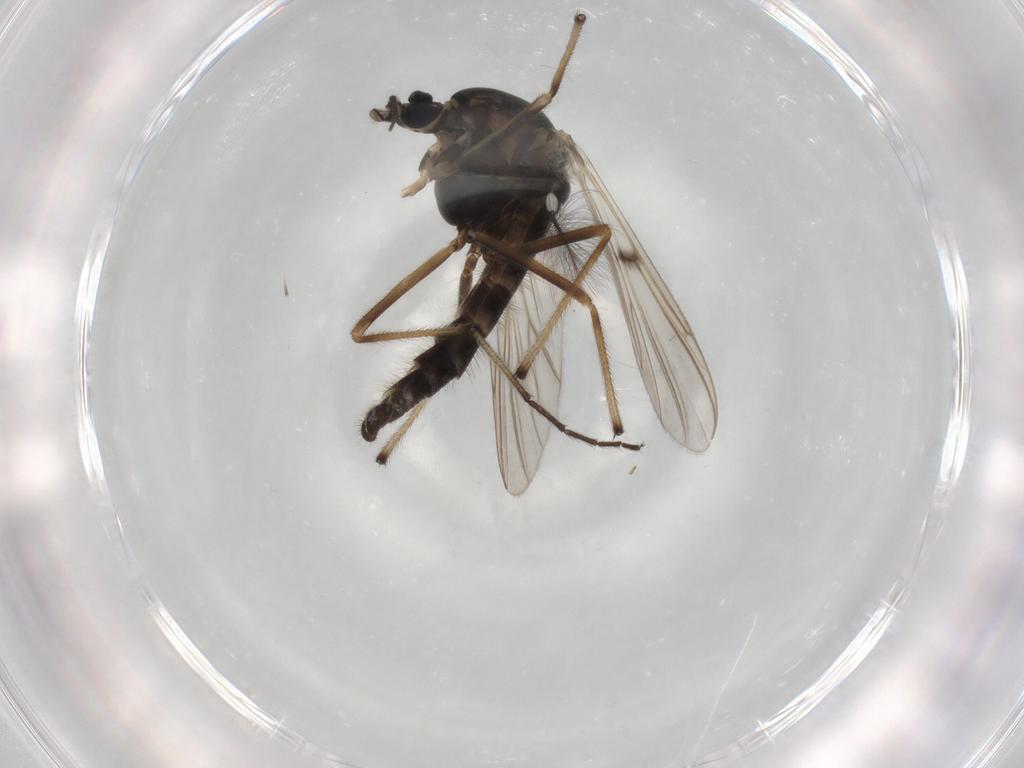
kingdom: Animalia
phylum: Arthropoda
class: Insecta
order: Diptera
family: Chironomidae
